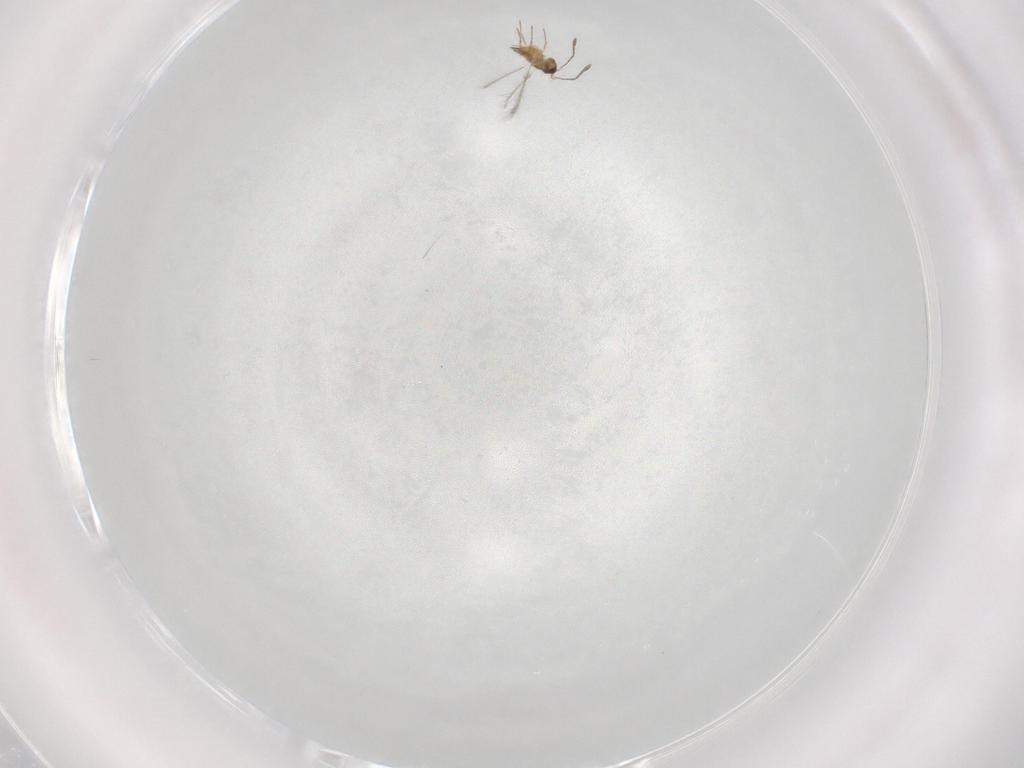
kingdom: Animalia
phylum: Arthropoda
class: Insecta
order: Hymenoptera
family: Mymaridae
